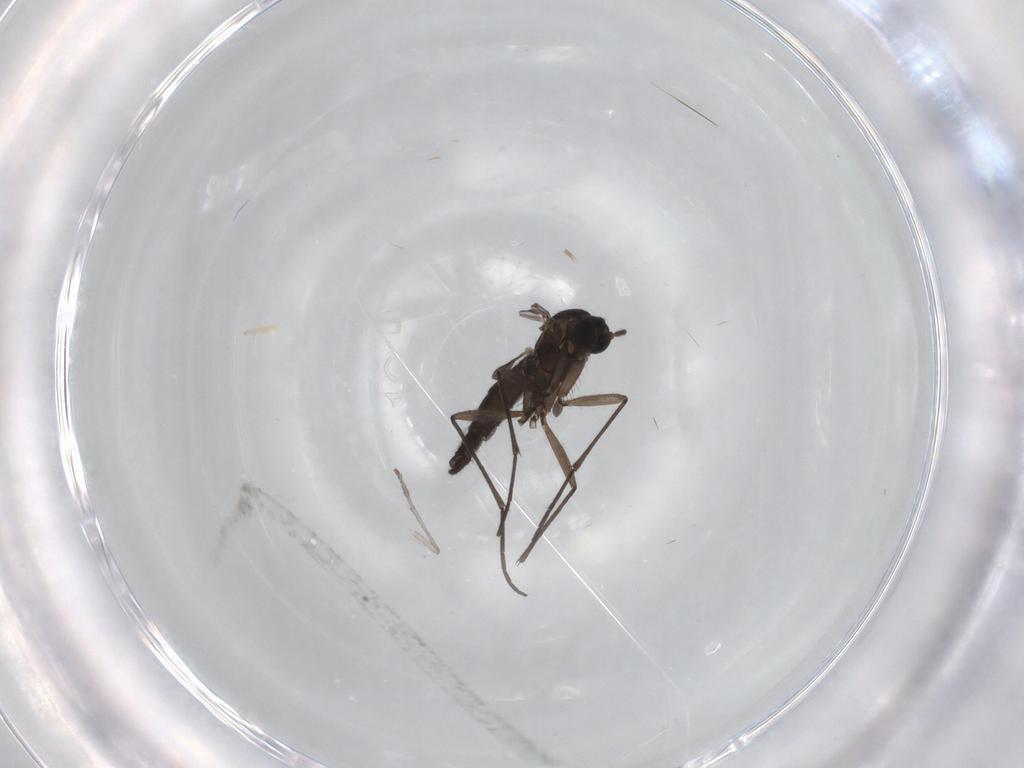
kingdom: Animalia
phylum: Arthropoda
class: Insecta
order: Diptera
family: Sciaridae
